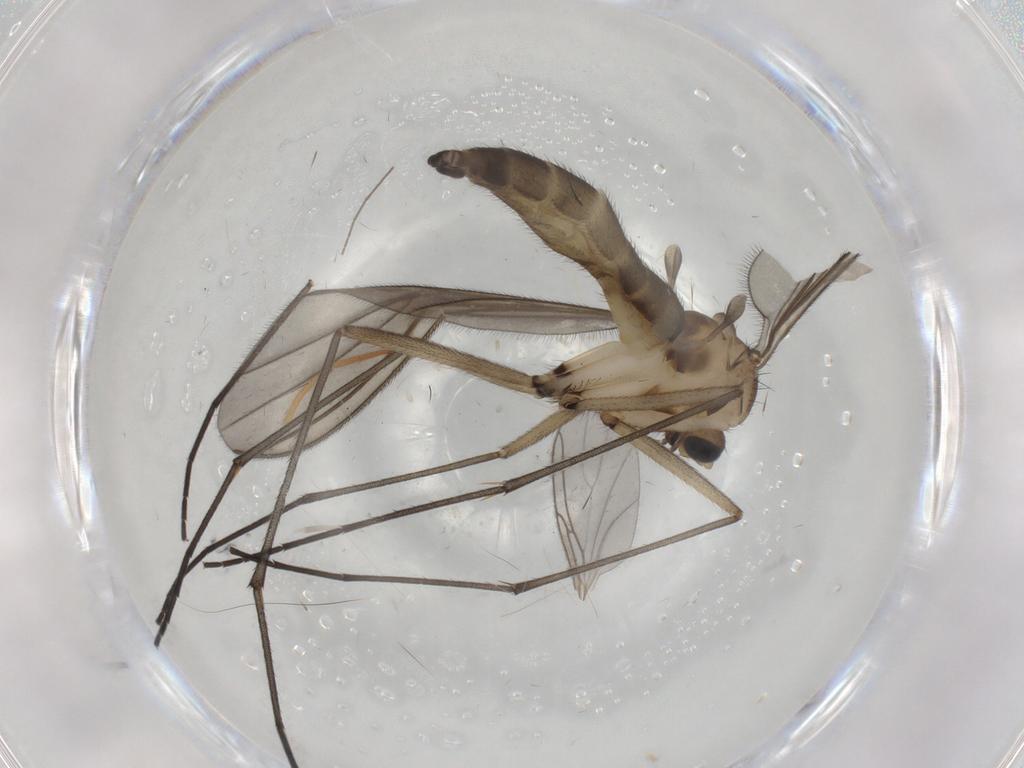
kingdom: Animalia
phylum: Arthropoda
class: Insecta
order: Diptera
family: Sciaridae
